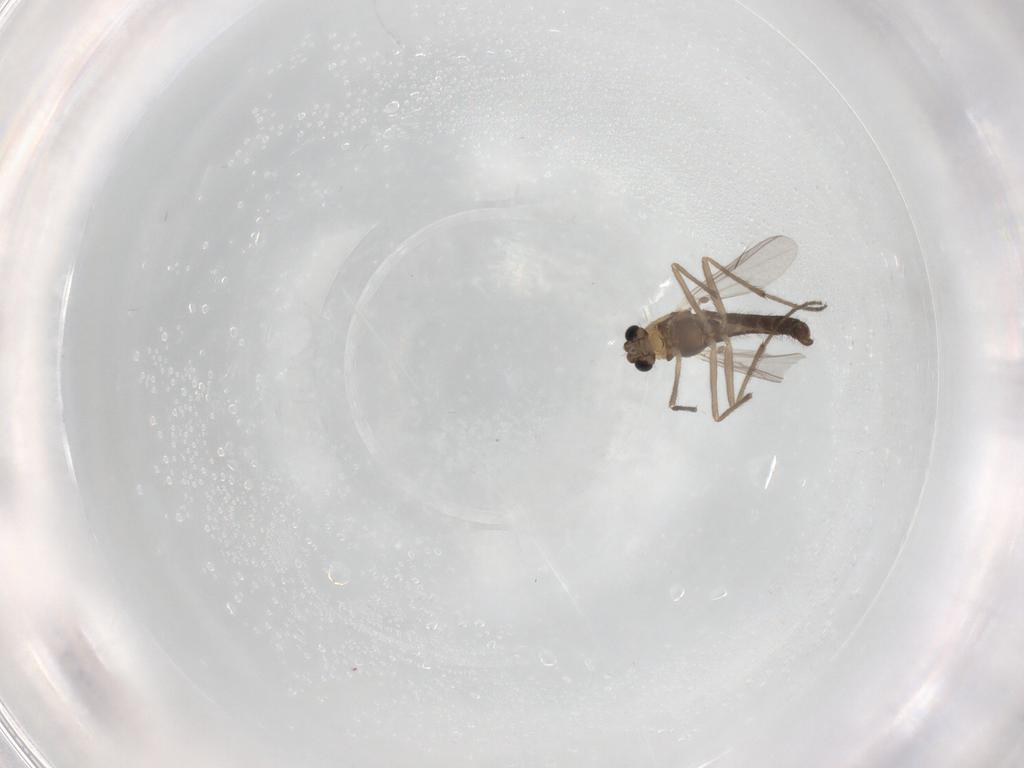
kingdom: Animalia
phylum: Arthropoda
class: Insecta
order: Diptera
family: Chironomidae
